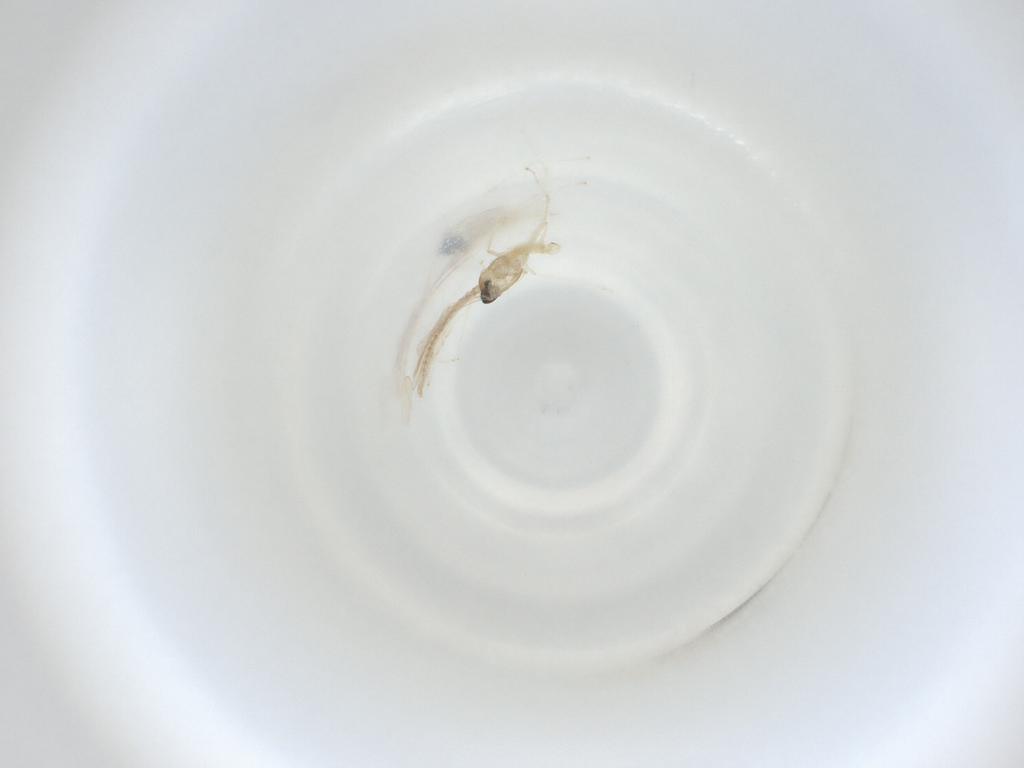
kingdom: Animalia
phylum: Arthropoda
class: Insecta
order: Diptera
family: Cecidomyiidae
